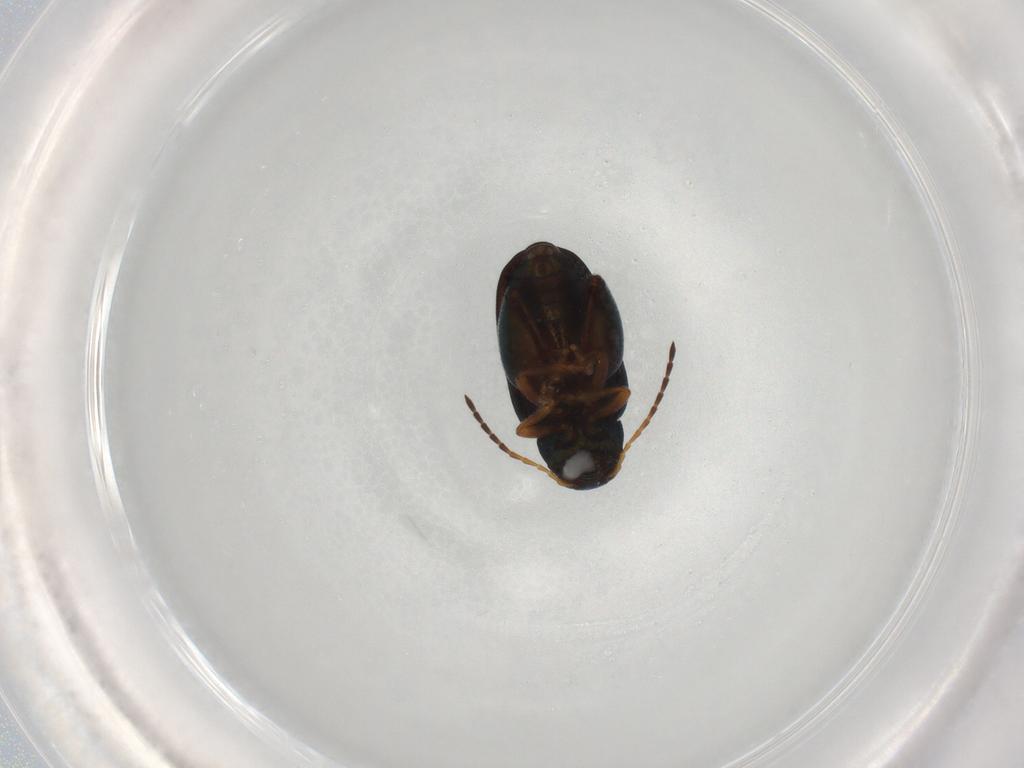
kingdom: Animalia
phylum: Arthropoda
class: Insecta
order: Coleoptera
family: Chrysomelidae
